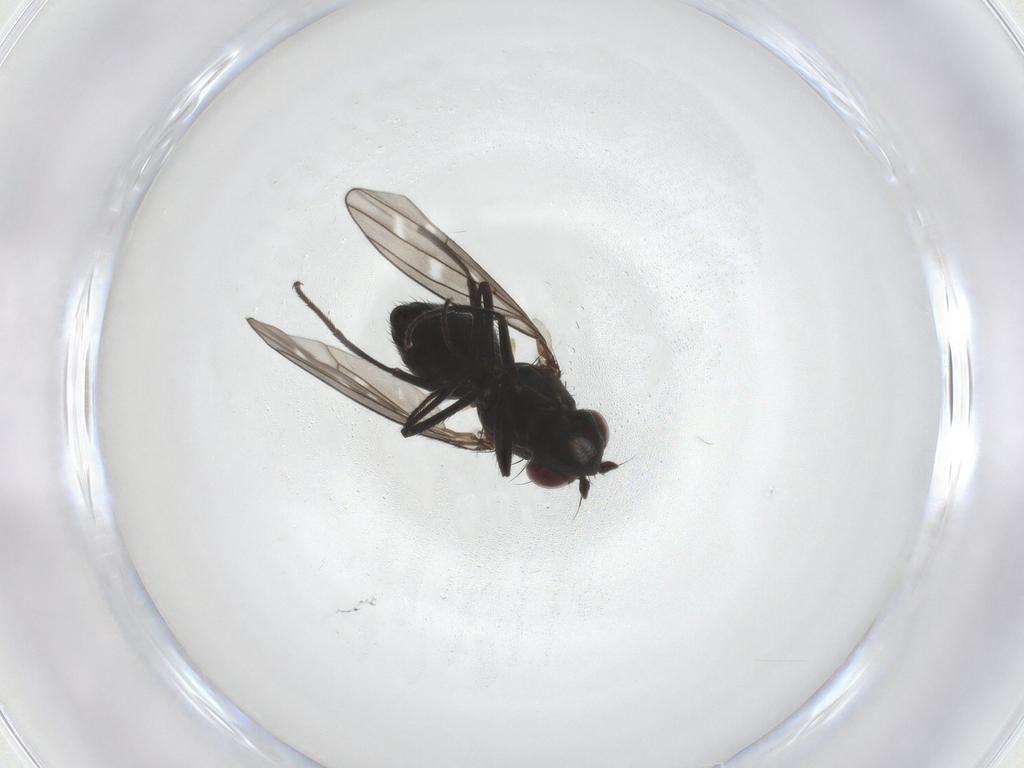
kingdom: Animalia
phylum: Arthropoda
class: Insecta
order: Diptera
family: Ephydridae
